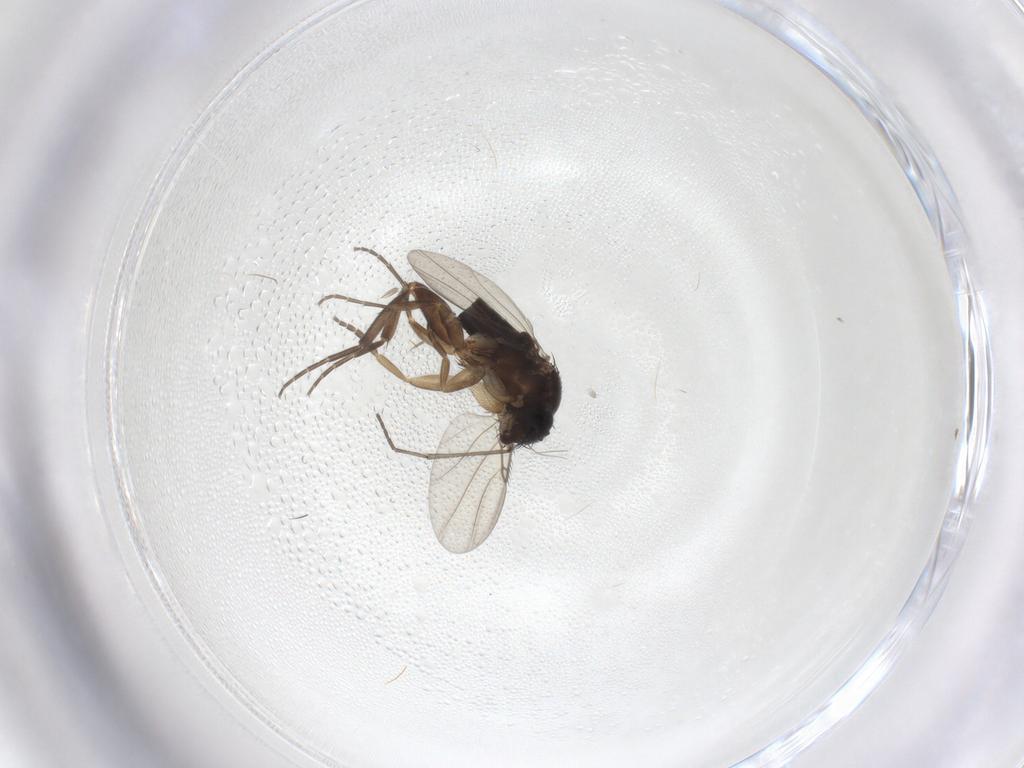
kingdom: Animalia
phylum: Arthropoda
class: Insecta
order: Diptera
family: Phoridae
